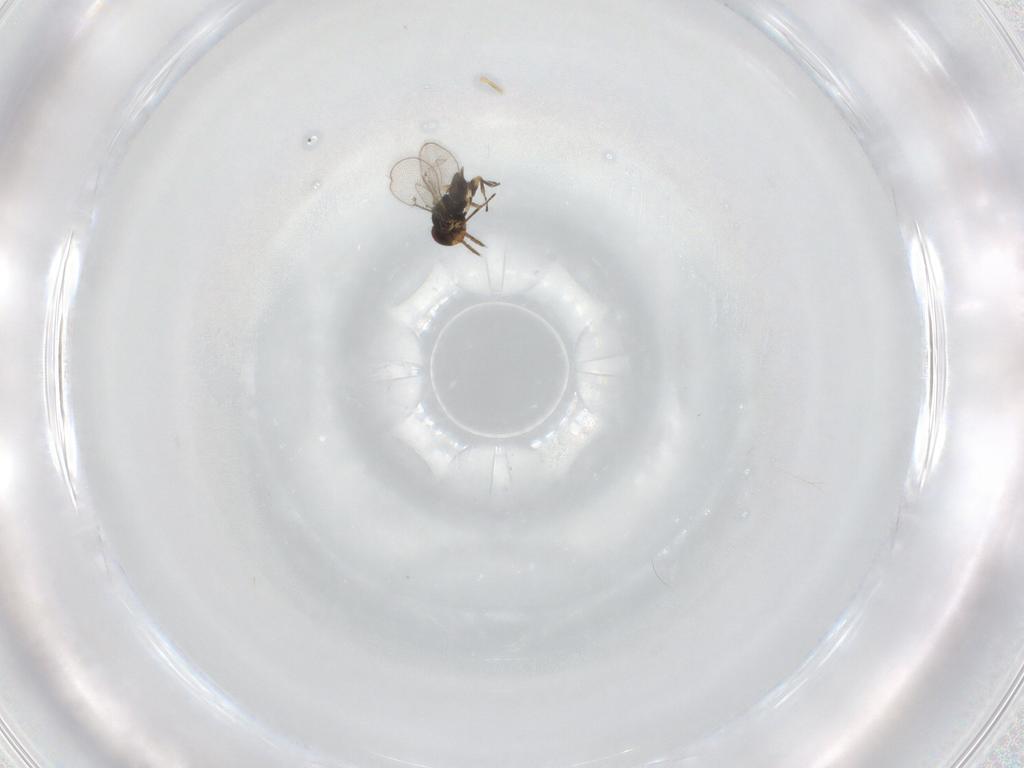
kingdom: Animalia
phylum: Arthropoda
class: Insecta
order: Hymenoptera
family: Eulophidae
